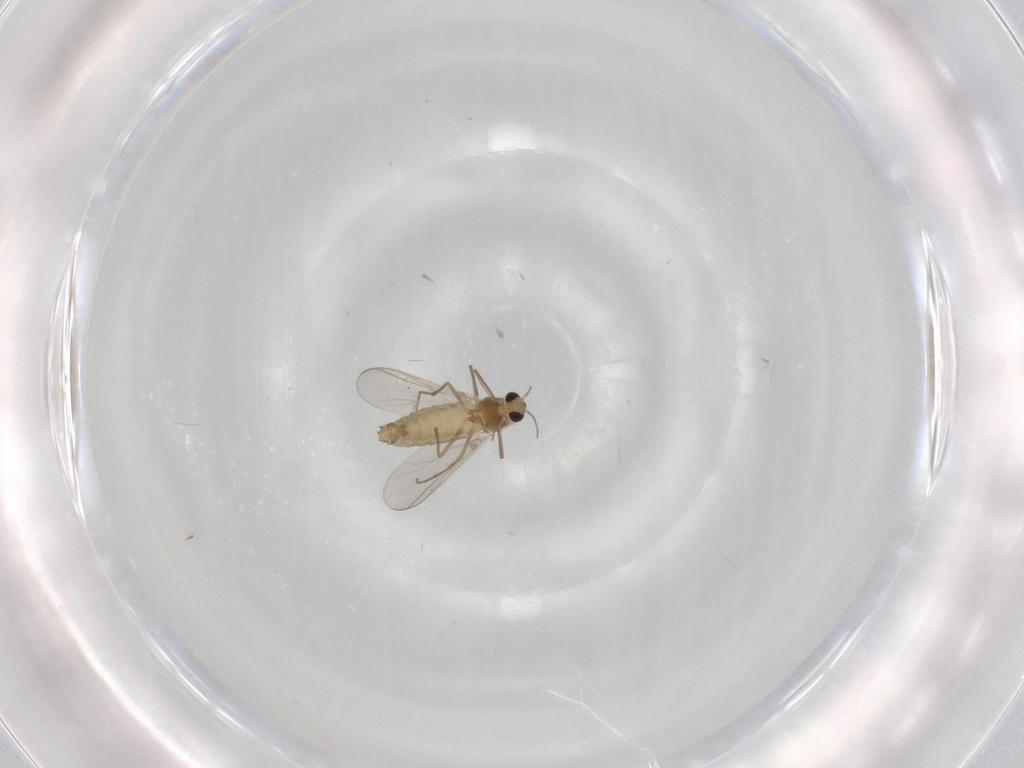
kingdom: Animalia
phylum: Arthropoda
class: Insecta
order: Diptera
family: Chironomidae
